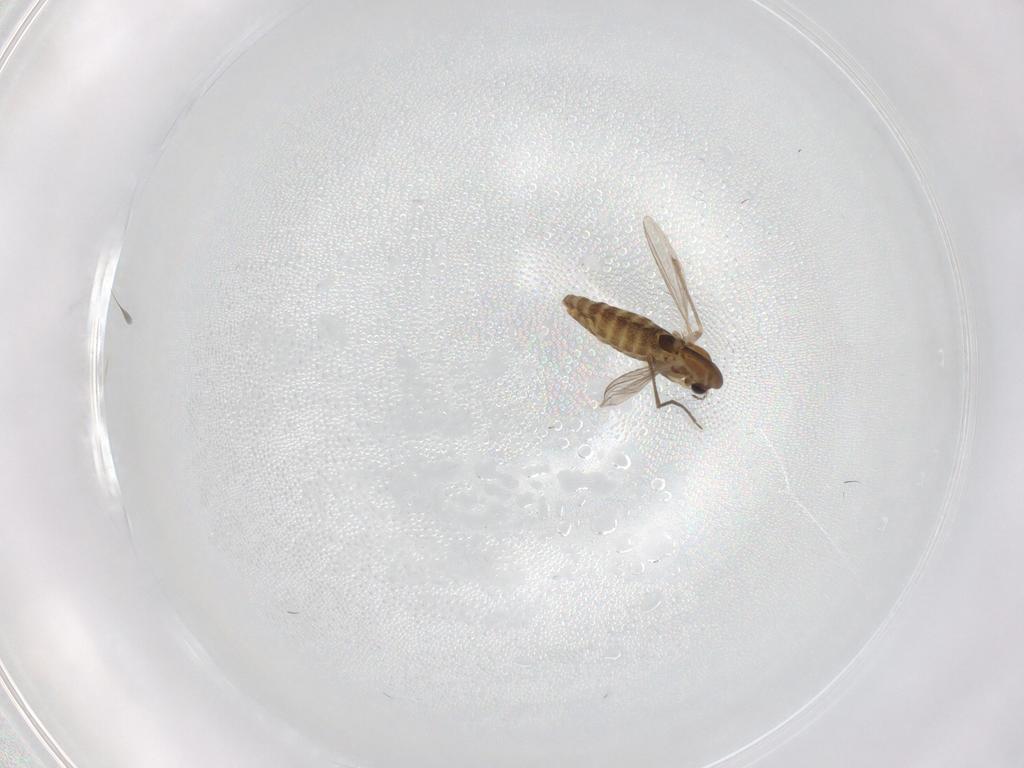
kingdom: Animalia
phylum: Arthropoda
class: Insecta
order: Diptera
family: Chironomidae
